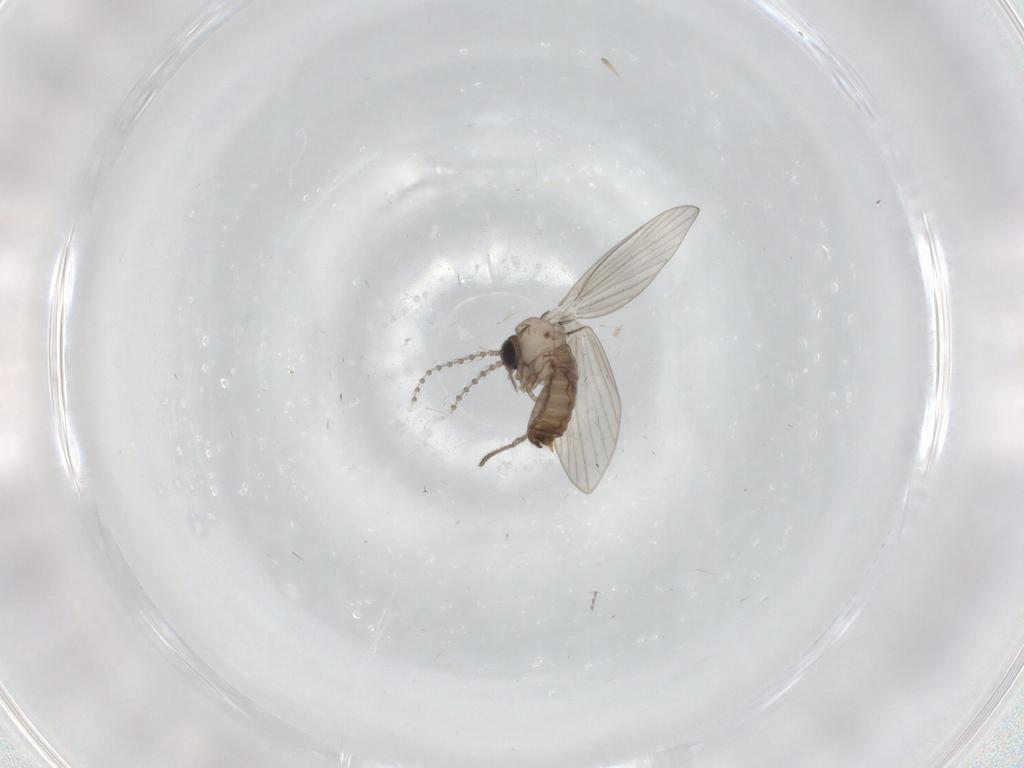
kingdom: Animalia
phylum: Arthropoda
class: Insecta
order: Diptera
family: Psychodidae
